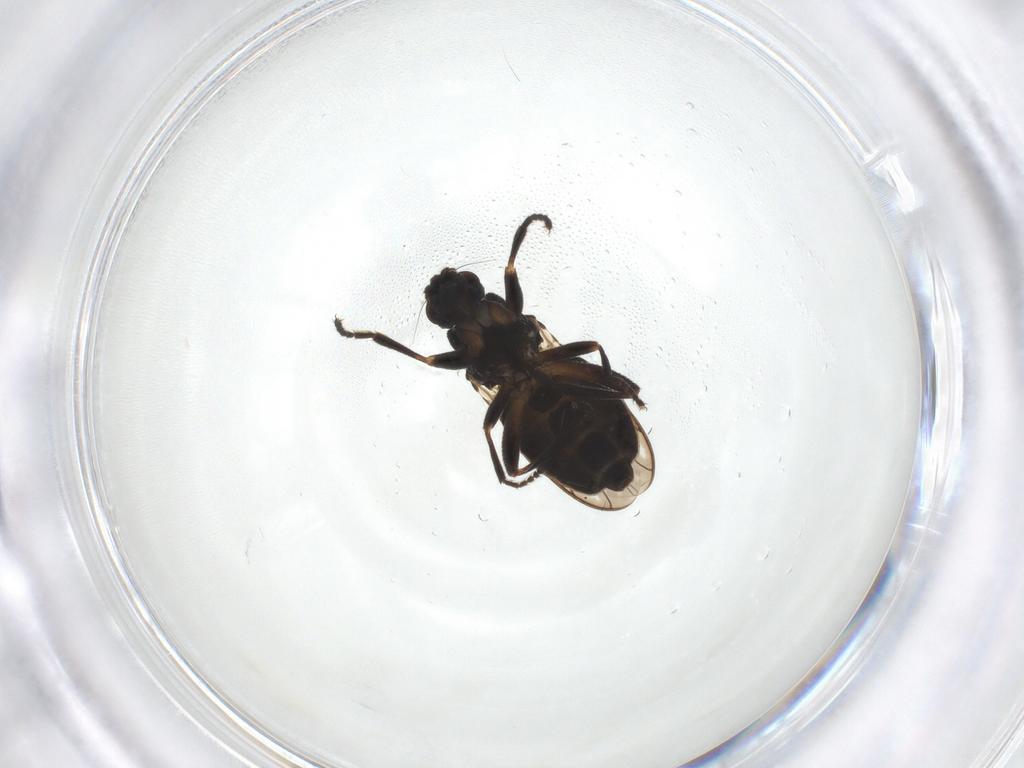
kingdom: Animalia
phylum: Arthropoda
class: Insecta
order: Diptera
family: Sphaeroceridae
